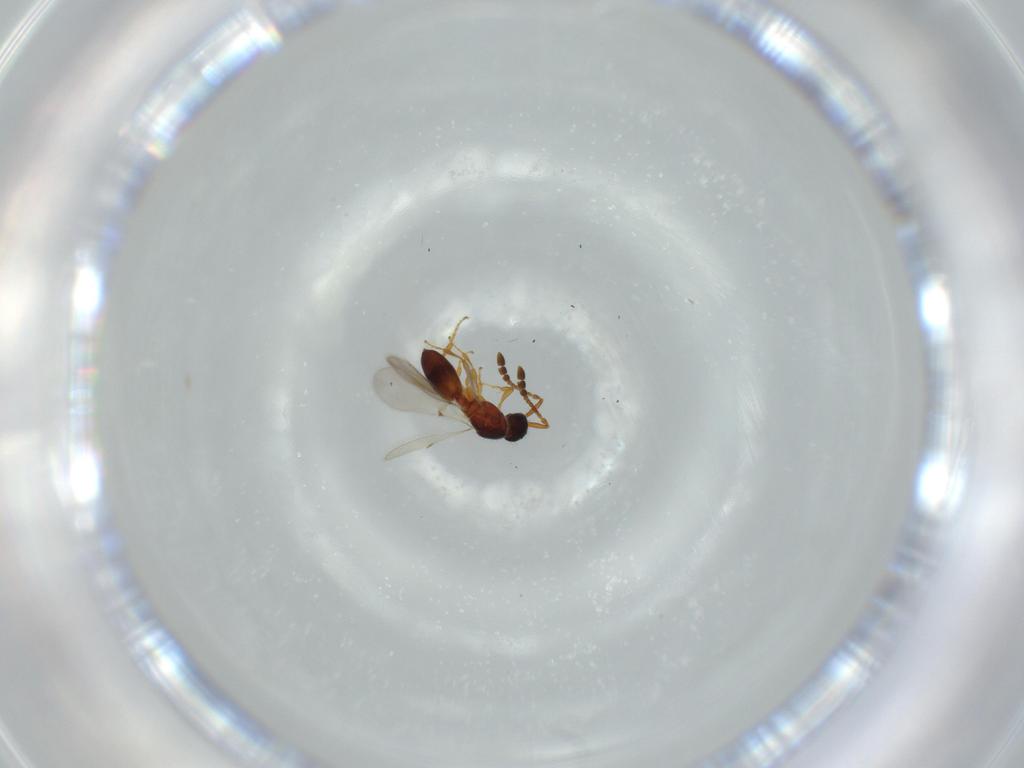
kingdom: Animalia
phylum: Arthropoda
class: Insecta
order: Hymenoptera
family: Diapriidae
